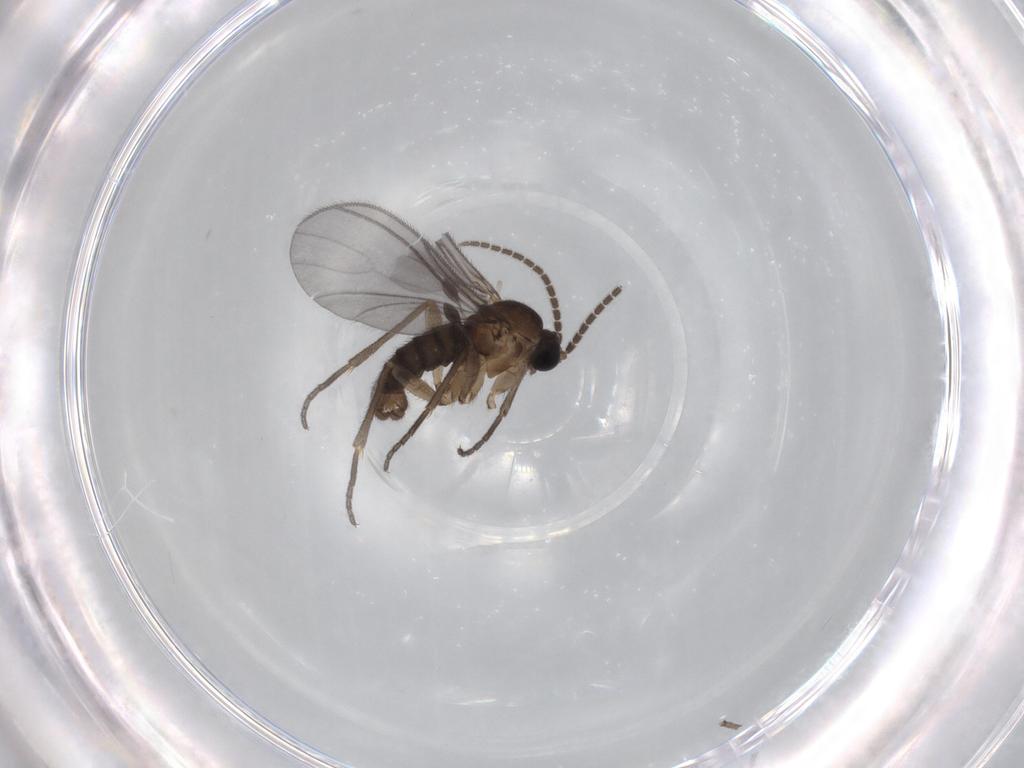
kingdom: Animalia
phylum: Arthropoda
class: Insecta
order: Diptera
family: Sciaridae
